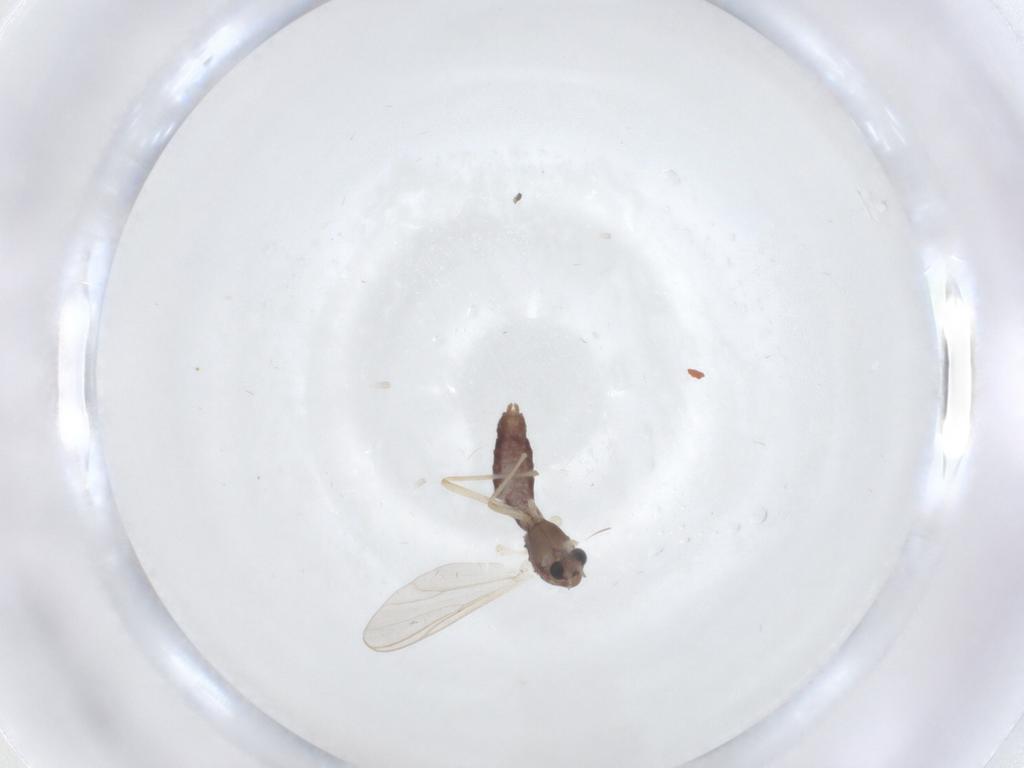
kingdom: Animalia
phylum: Arthropoda
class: Insecta
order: Diptera
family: Chironomidae
